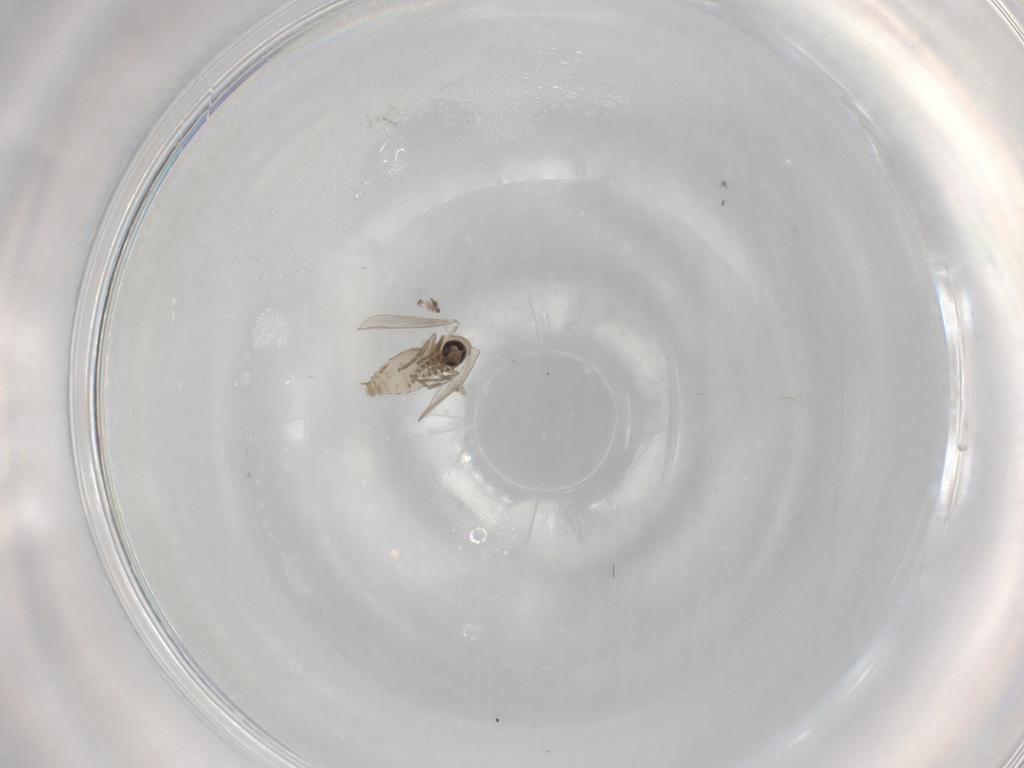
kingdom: Animalia
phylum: Arthropoda
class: Insecta
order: Diptera
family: Psychodidae
